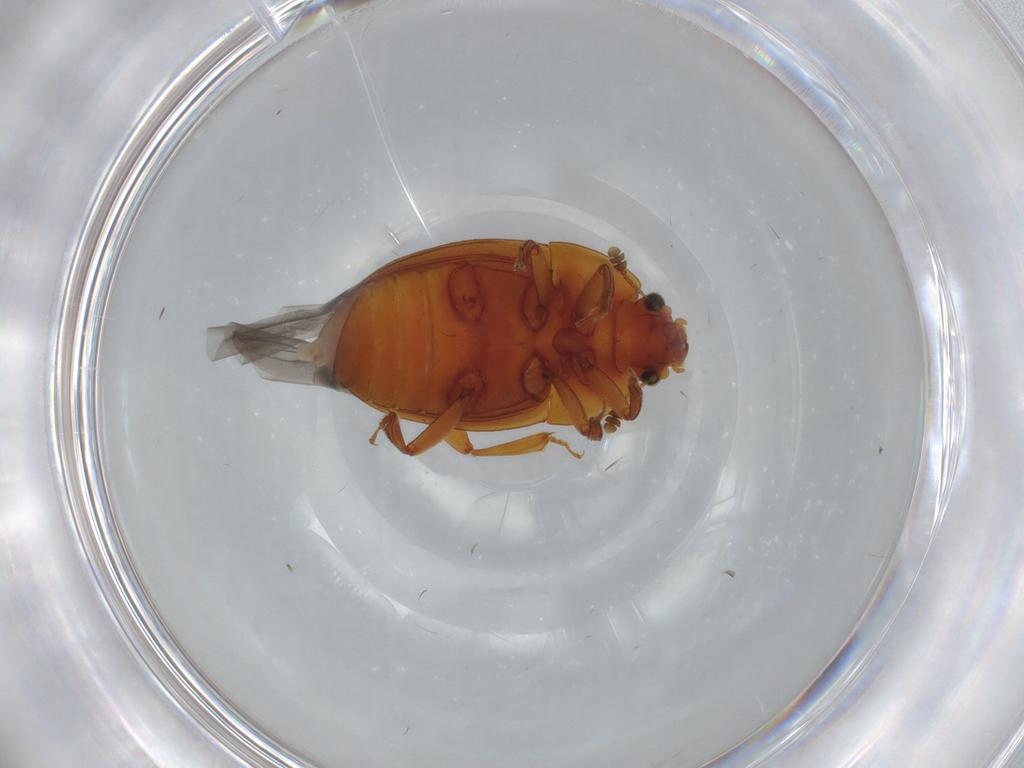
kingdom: Animalia
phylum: Arthropoda
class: Insecta
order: Coleoptera
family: Nitidulidae
